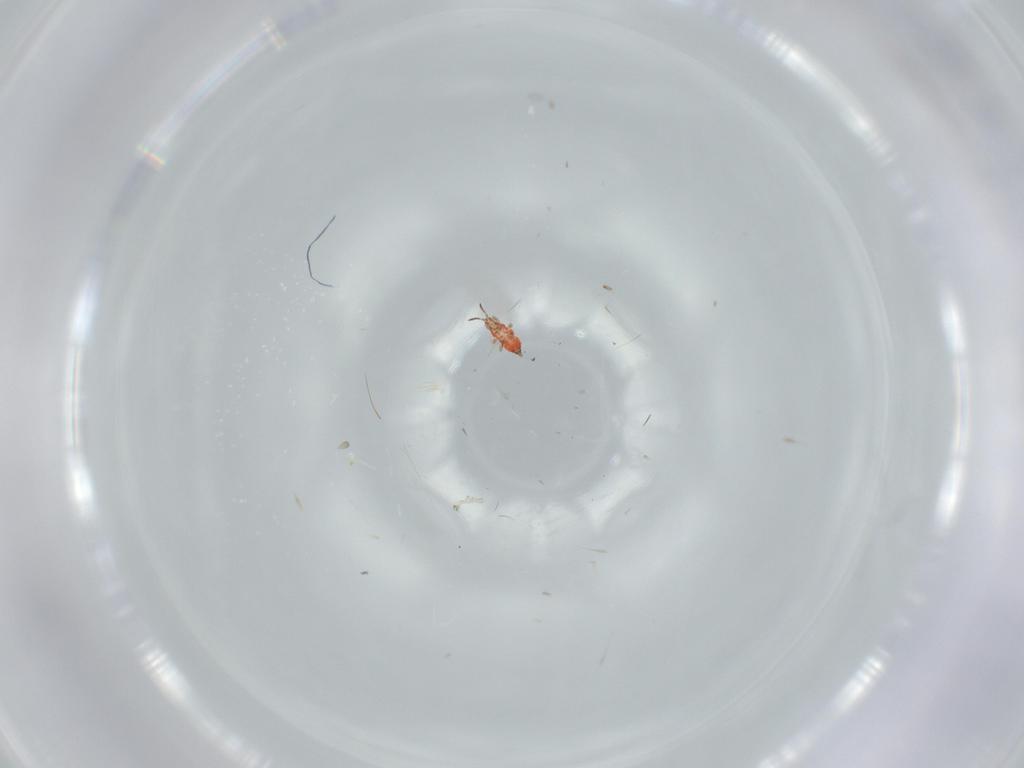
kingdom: Animalia
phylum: Arthropoda
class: Insecta
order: Thysanoptera
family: Phlaeothripidae
